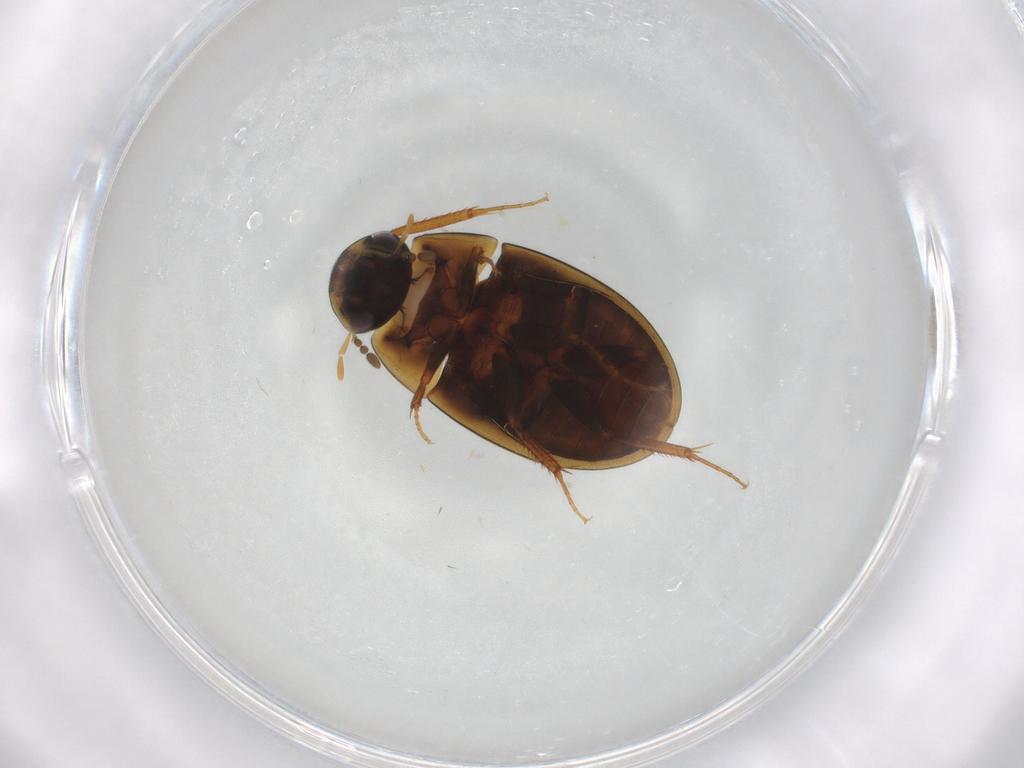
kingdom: Animalia
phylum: Arthropoda
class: Insecta
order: Coleoptera
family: Hydrophilidae
